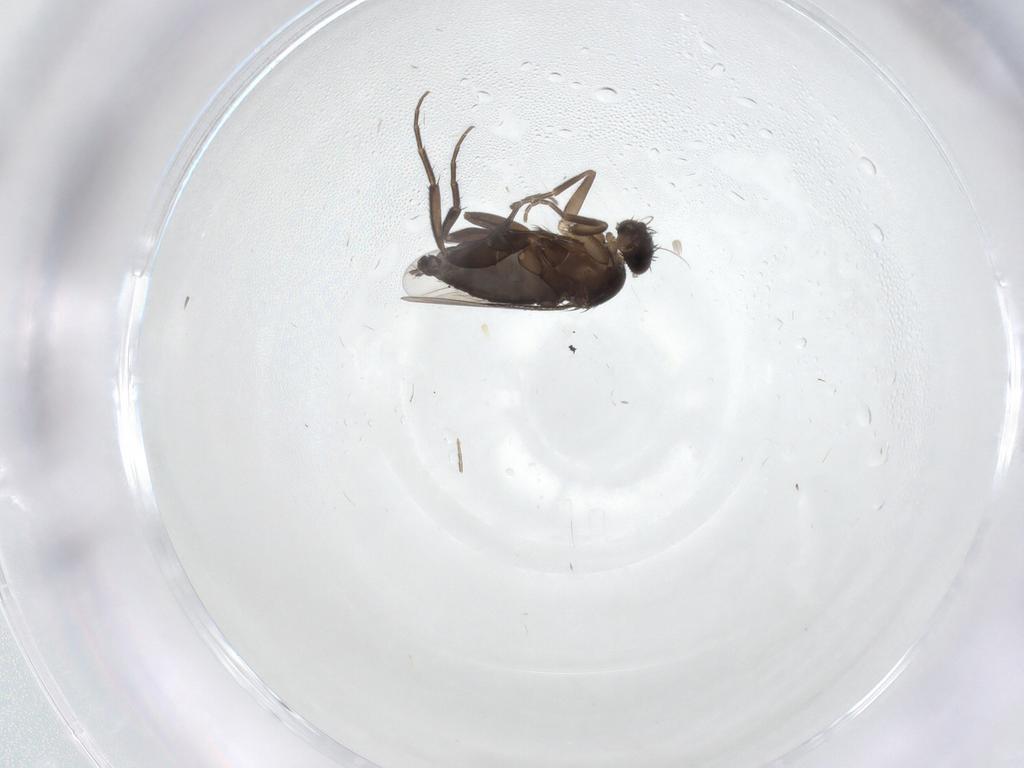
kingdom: Animalia
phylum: Arthropoda
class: Insecta
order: Diptera
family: Phoridae
